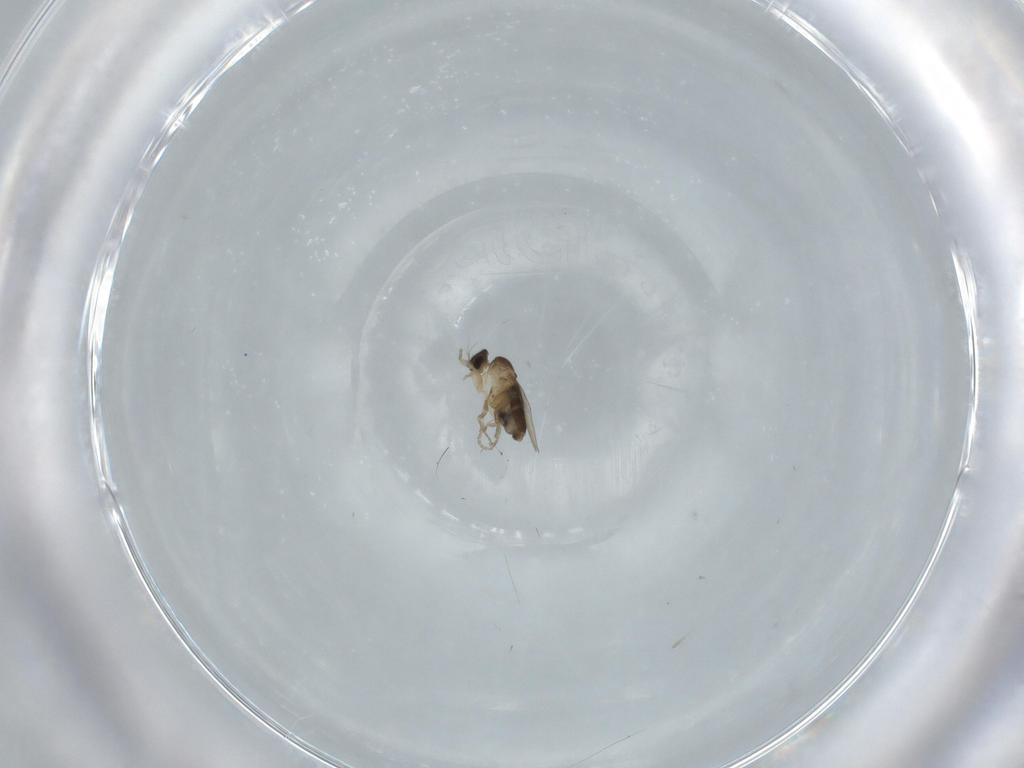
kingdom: Animalia
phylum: Arthropoda
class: Insecta
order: Diptera
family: Phoridae
